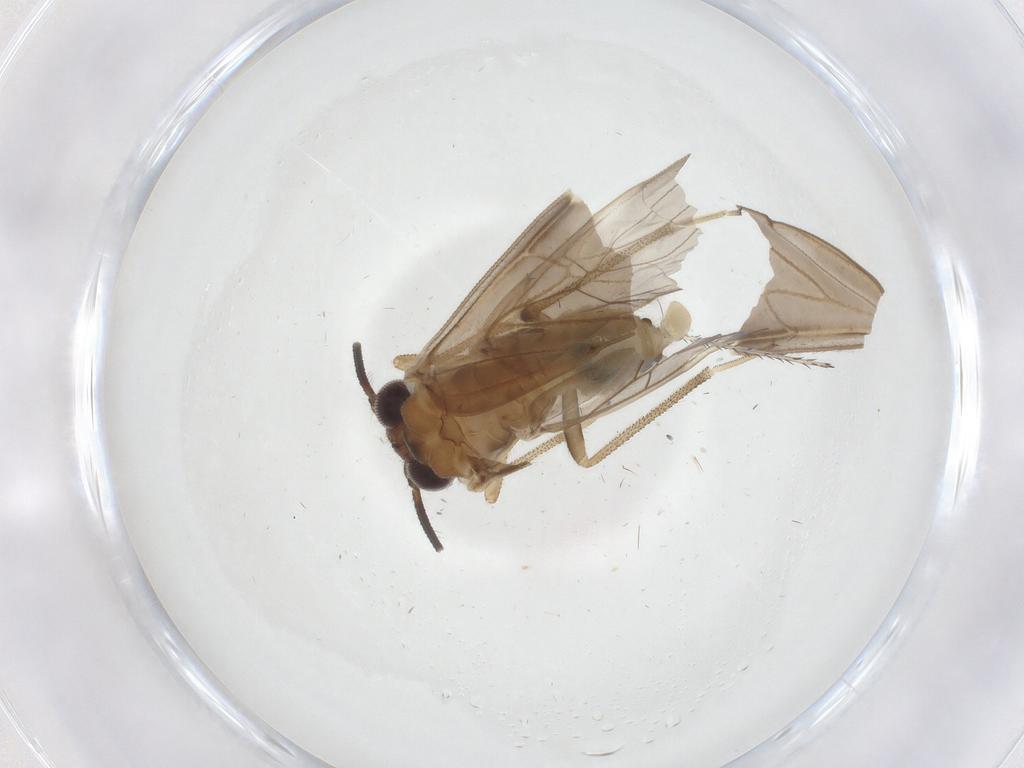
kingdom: Animalia
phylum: Arthropoda
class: Insecta
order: Psocodea
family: Amphipsocidae
